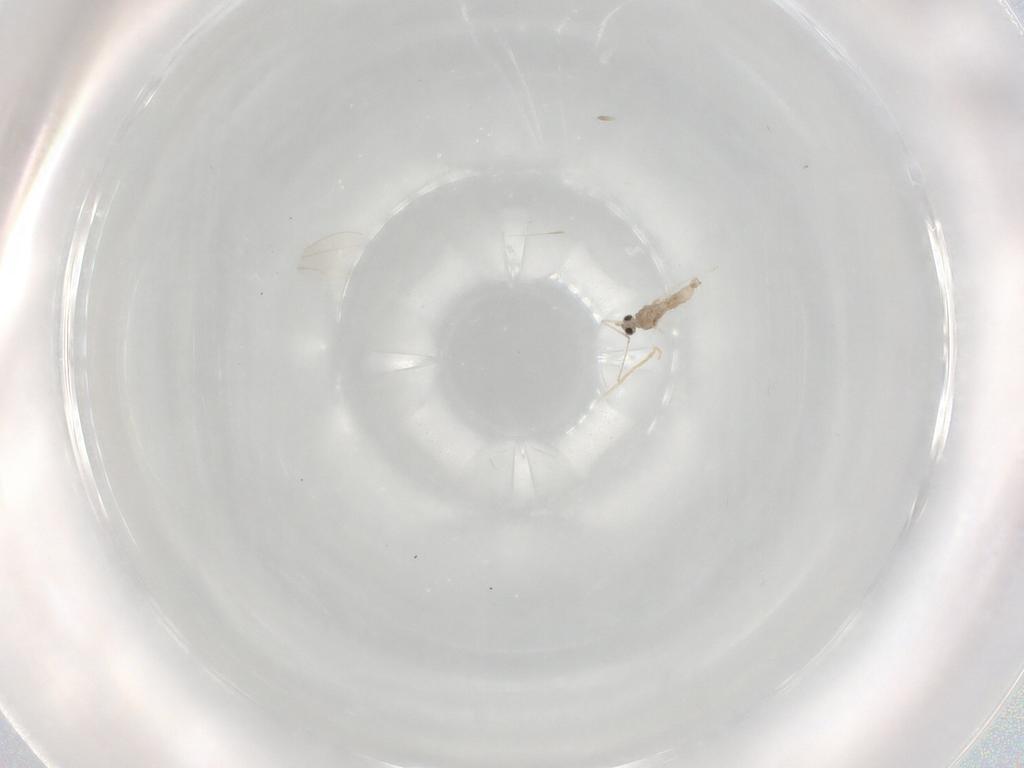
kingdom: Animalia
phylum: Arthropoda
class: Insecta
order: Diptera
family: Cecidomyiidae
